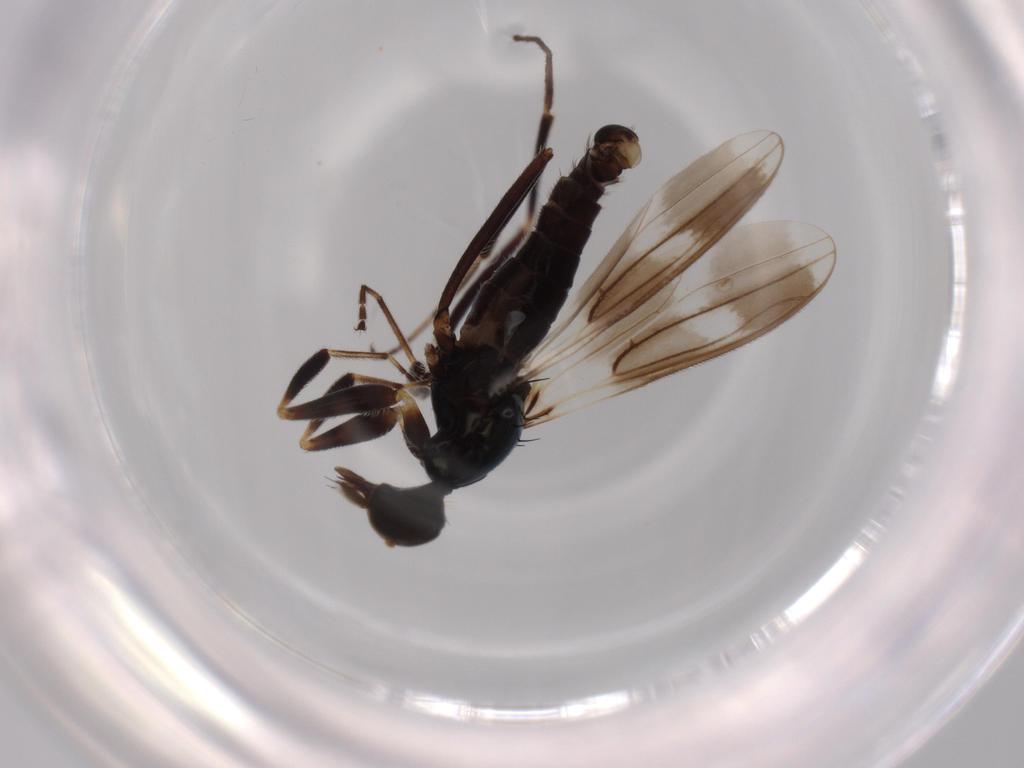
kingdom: Animalia
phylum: Arthropoda
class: Insecta
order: Diptera
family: Hybotidae
